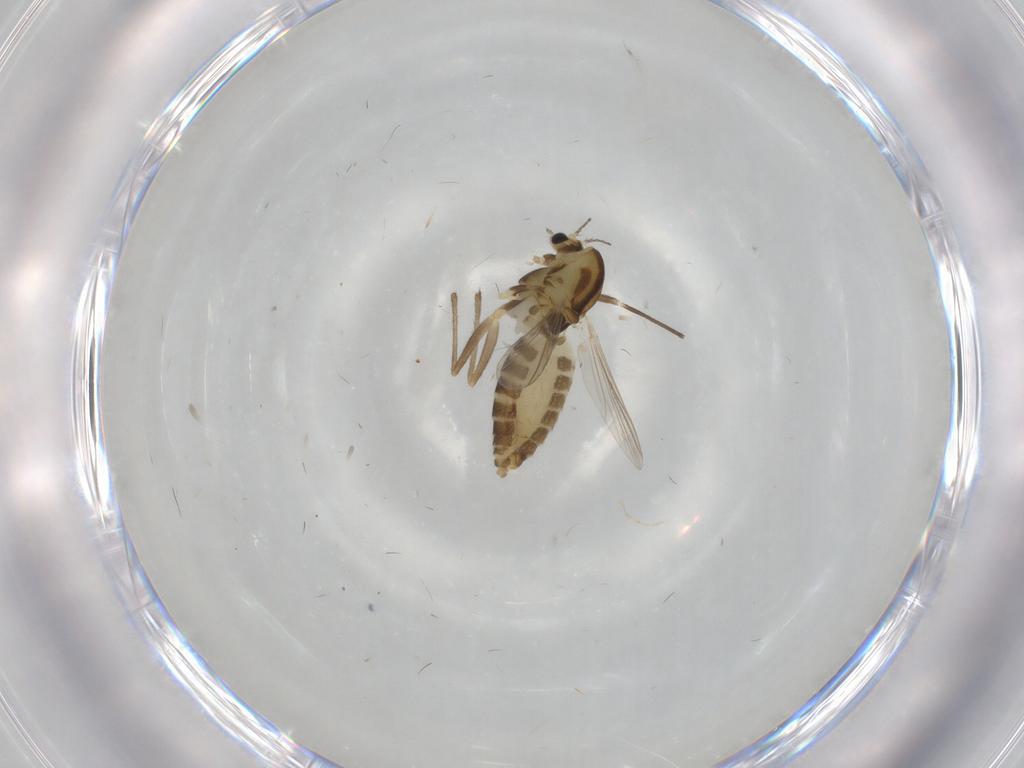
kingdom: Animalia
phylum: Arthropoda
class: Insecta
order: Diptera
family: Chironomidae
